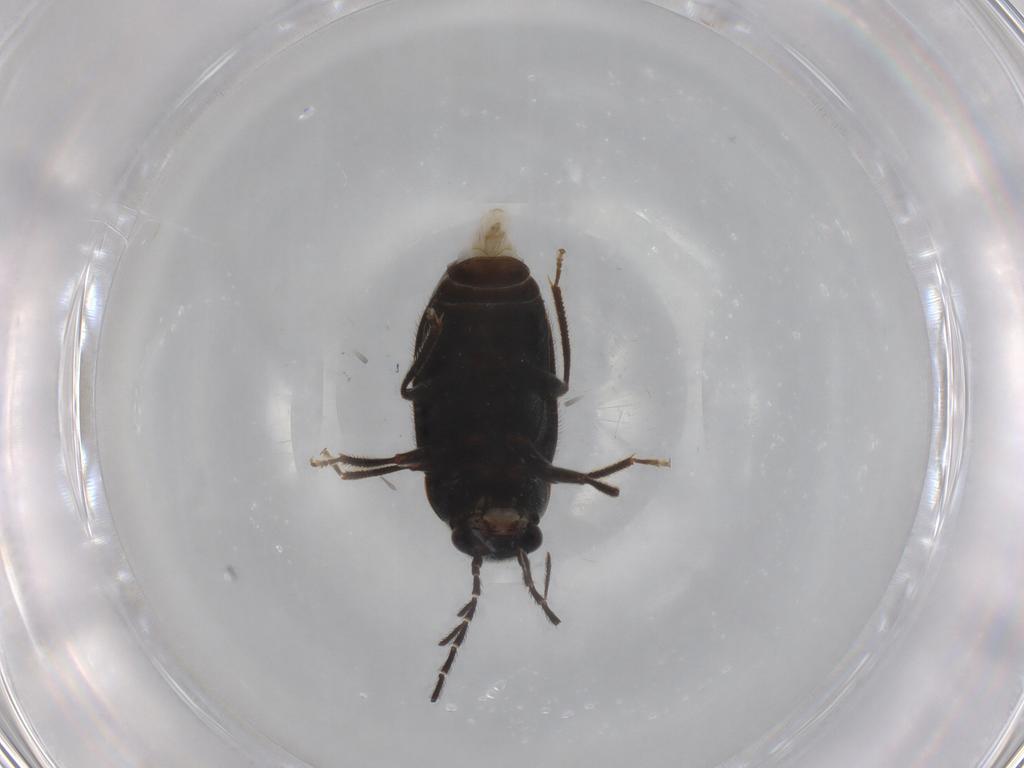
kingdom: Animalia
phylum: Arthropoda
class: Insecta
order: Coleoptera
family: Ptilodactylidae
